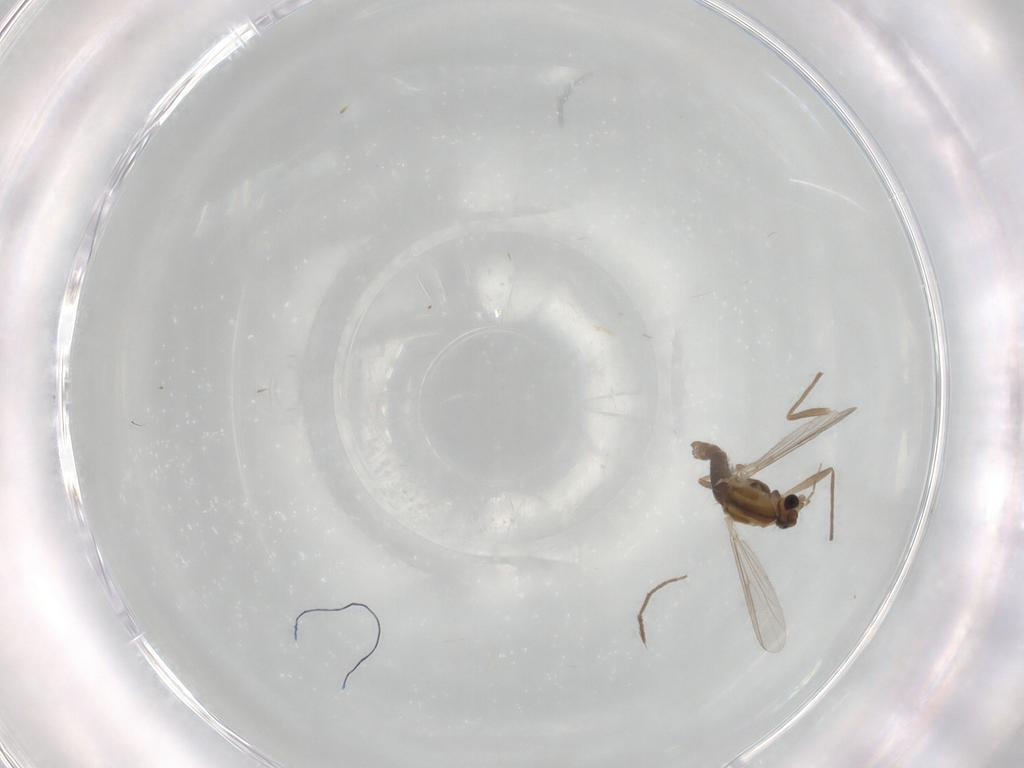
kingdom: Animalia
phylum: Arthropoda
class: Insecta
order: Diptera
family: Chironomidae
